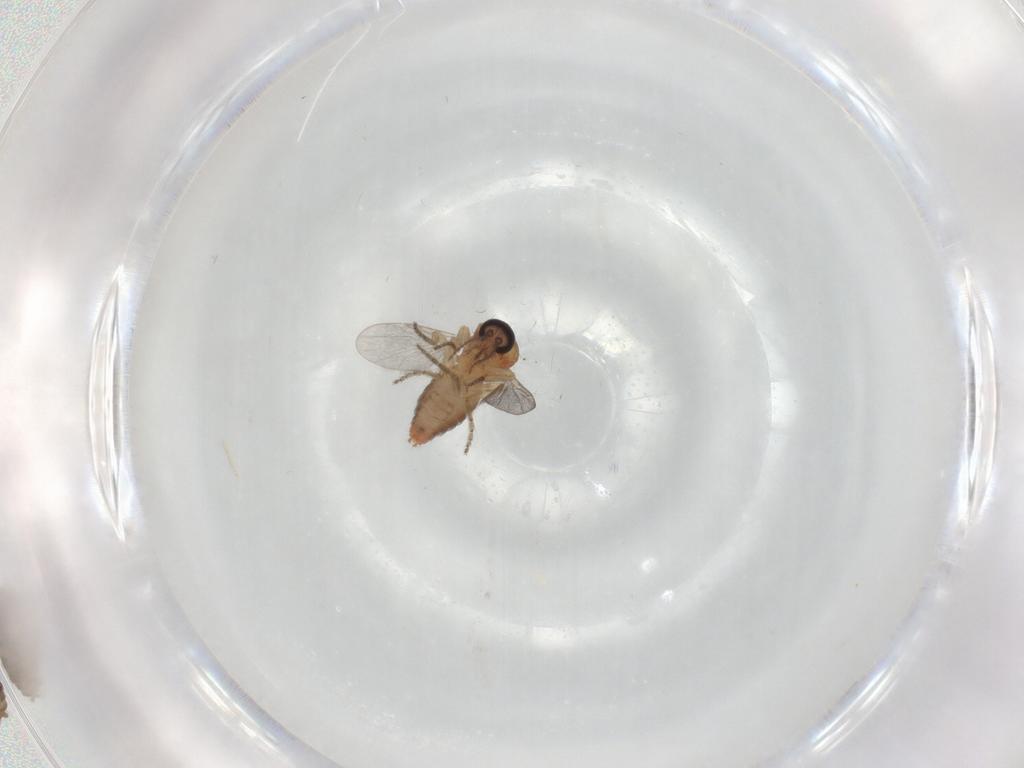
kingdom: Animalia
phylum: Arthropoda
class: Insecta
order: Diptera
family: Ceratopogonidae
